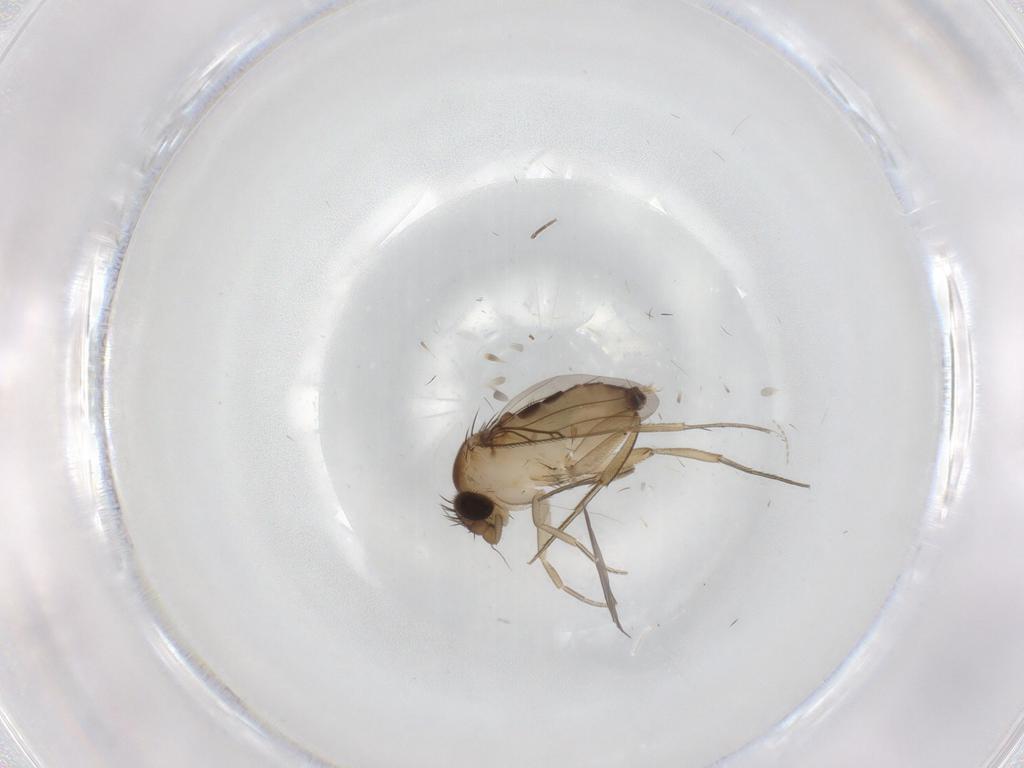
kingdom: Animalia
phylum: Arthropoda
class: Insecta
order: Diptera
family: Phoridae
